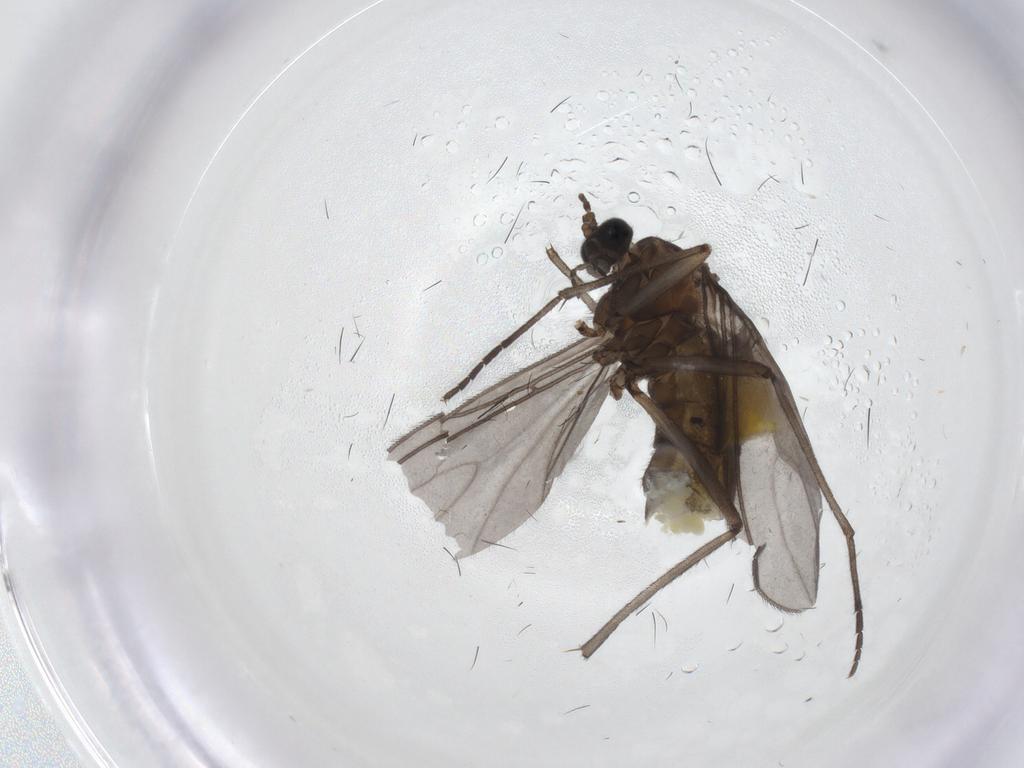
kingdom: Animalia
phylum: Arthropoda
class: Insecta
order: Diptera
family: Sciaridae
